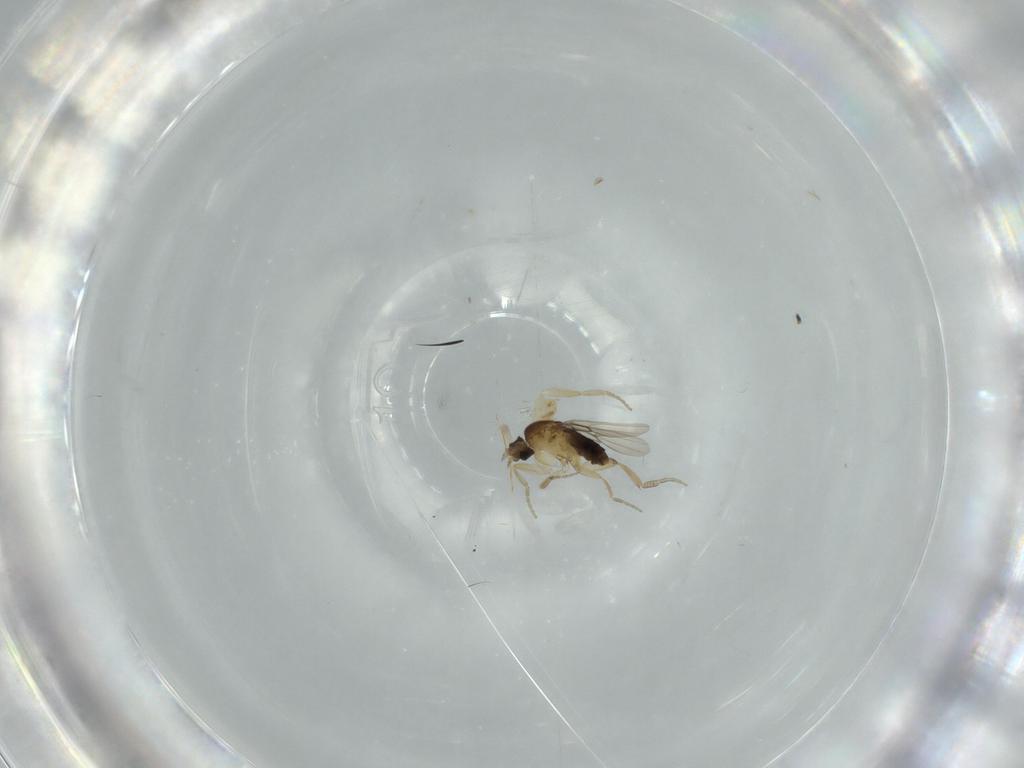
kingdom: Animalia
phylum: Arthropoda
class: Insecta
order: Diptera
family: Phoridae
